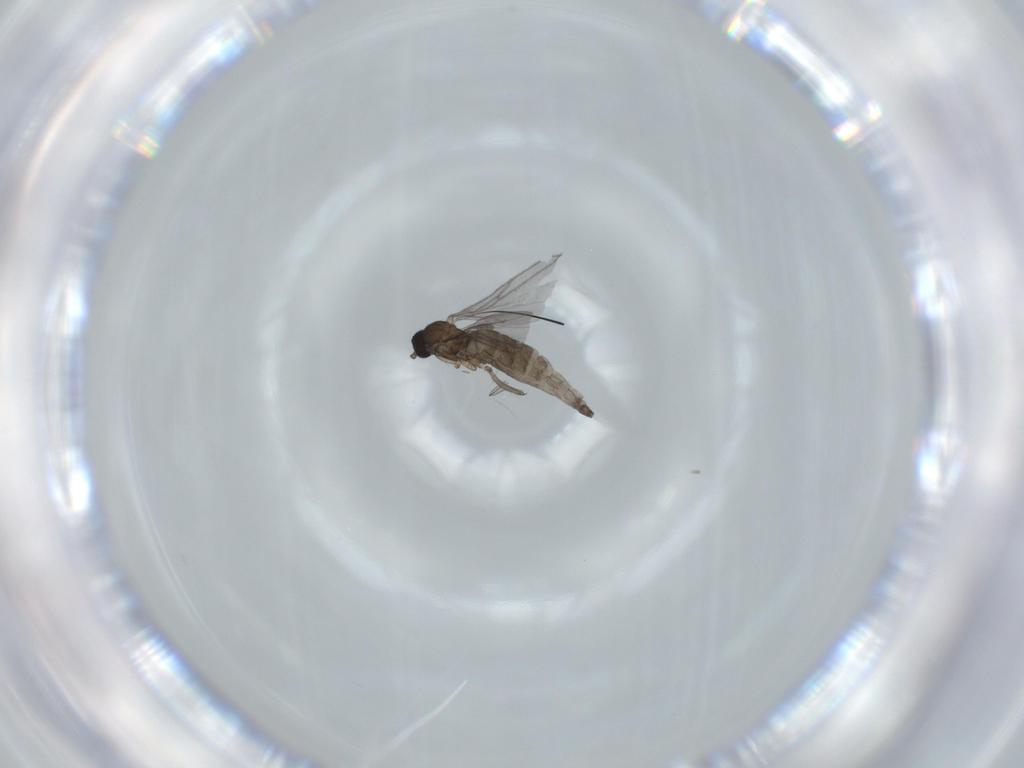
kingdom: Animalia
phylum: Arthropoda
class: Insecta
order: Diptera
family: Phoridae
